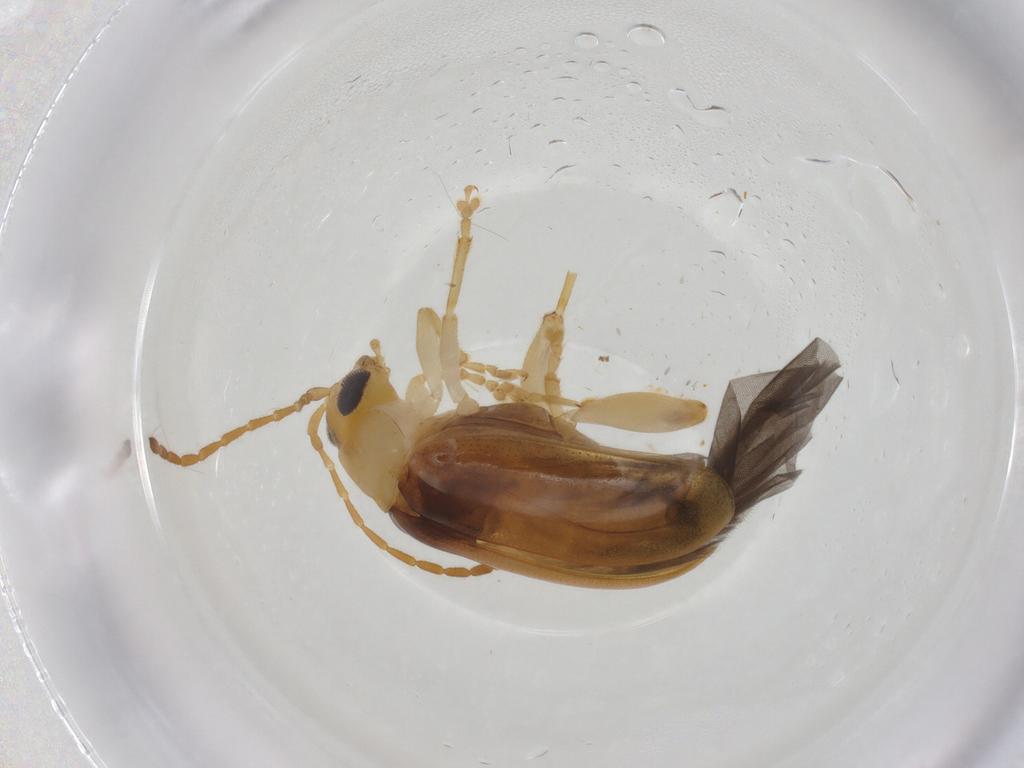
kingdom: Animalia
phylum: Arthropoda
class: Insecta
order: Coleoptera
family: Chrysomelidae
